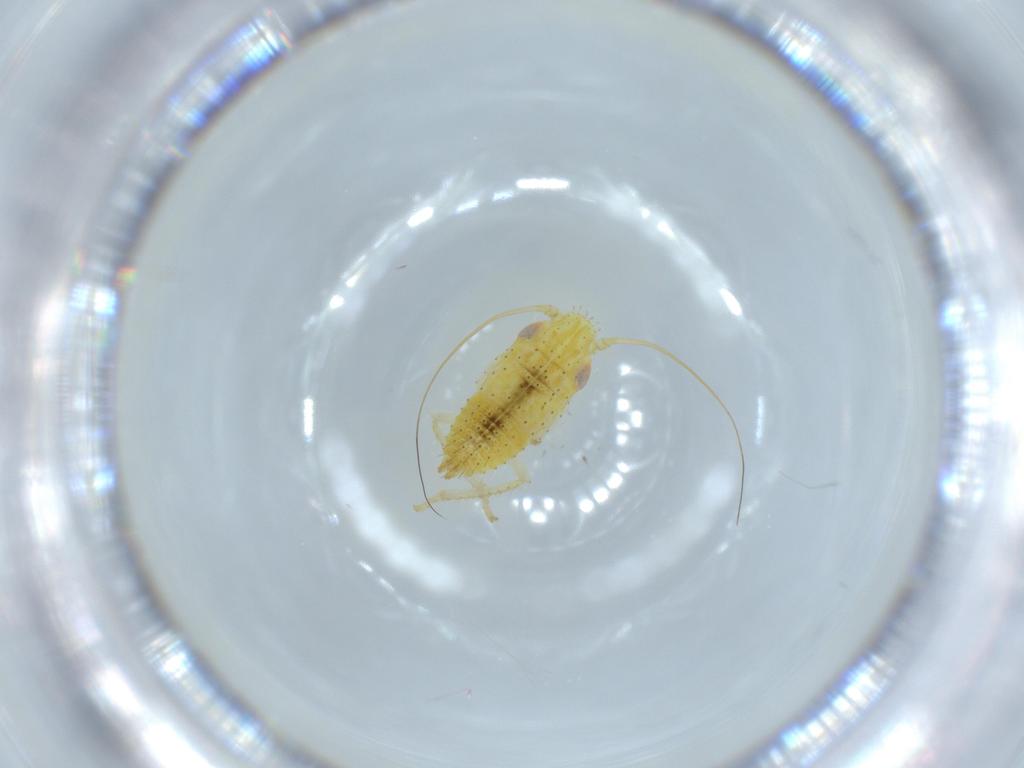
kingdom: Animalia
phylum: Arthropoda
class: Insecta
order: Hemiptera
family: Cicadellidae
